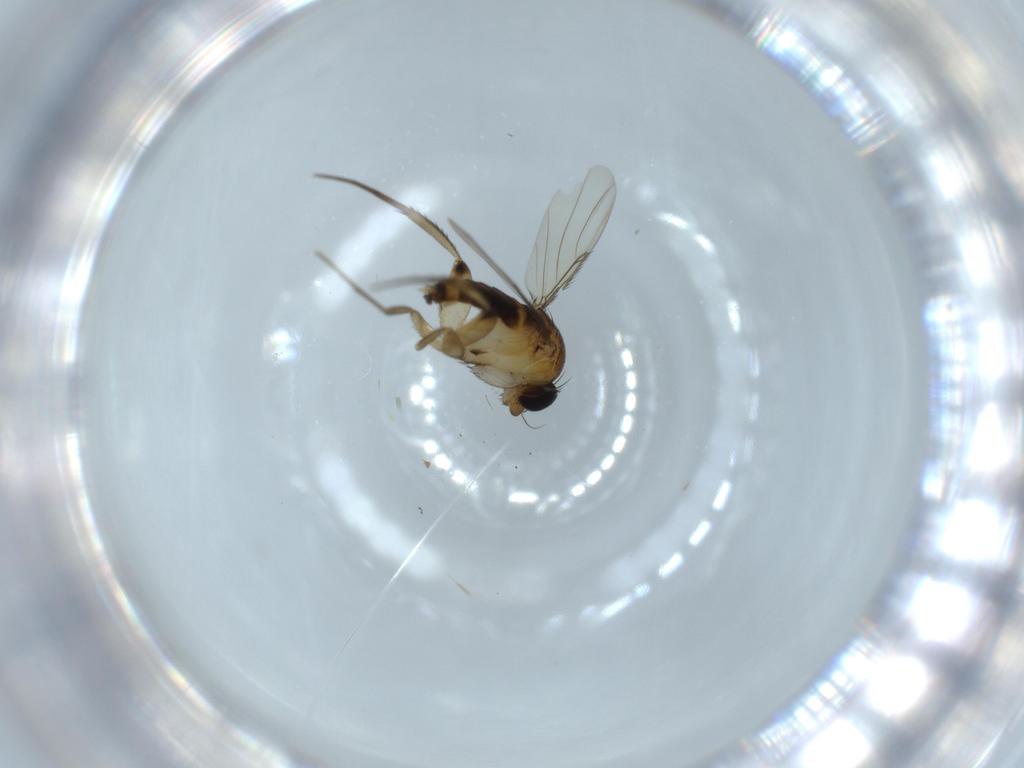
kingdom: Animalia
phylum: Arthropoda
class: Insecta
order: Diptera
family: Phoridae
